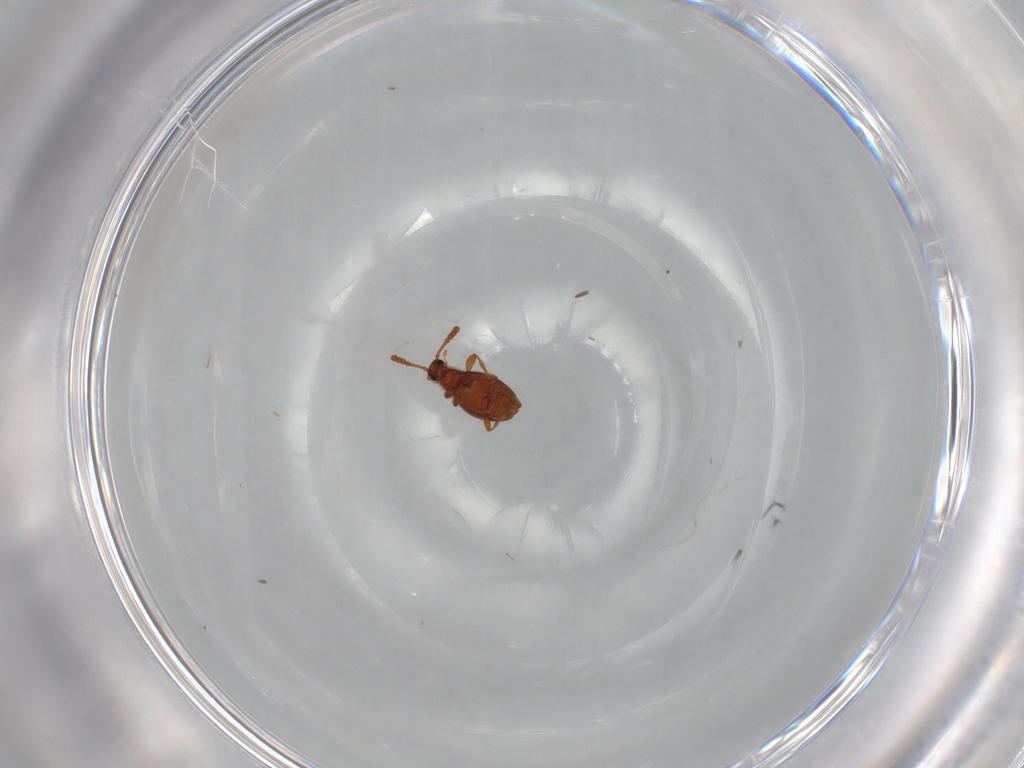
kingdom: Animalia
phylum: Arthropoda
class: Insecta
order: Coleoptera
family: Staphylinidae
